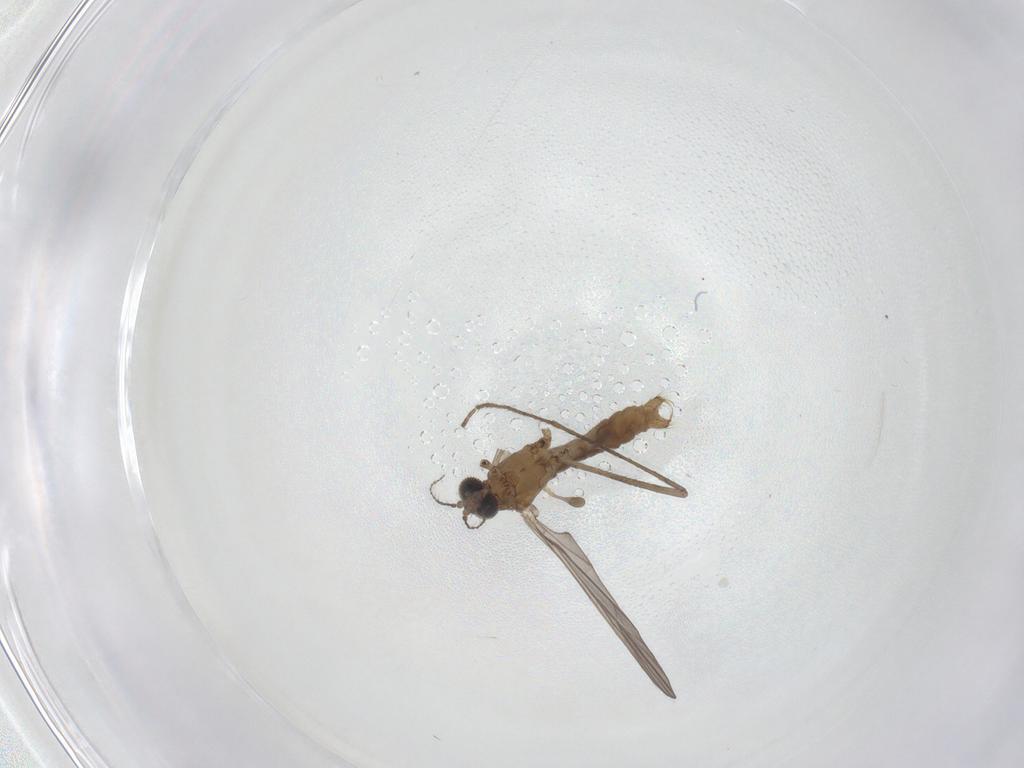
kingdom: Animalia
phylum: Arthropoda
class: Insecta
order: Diptera
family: Limoniidae
